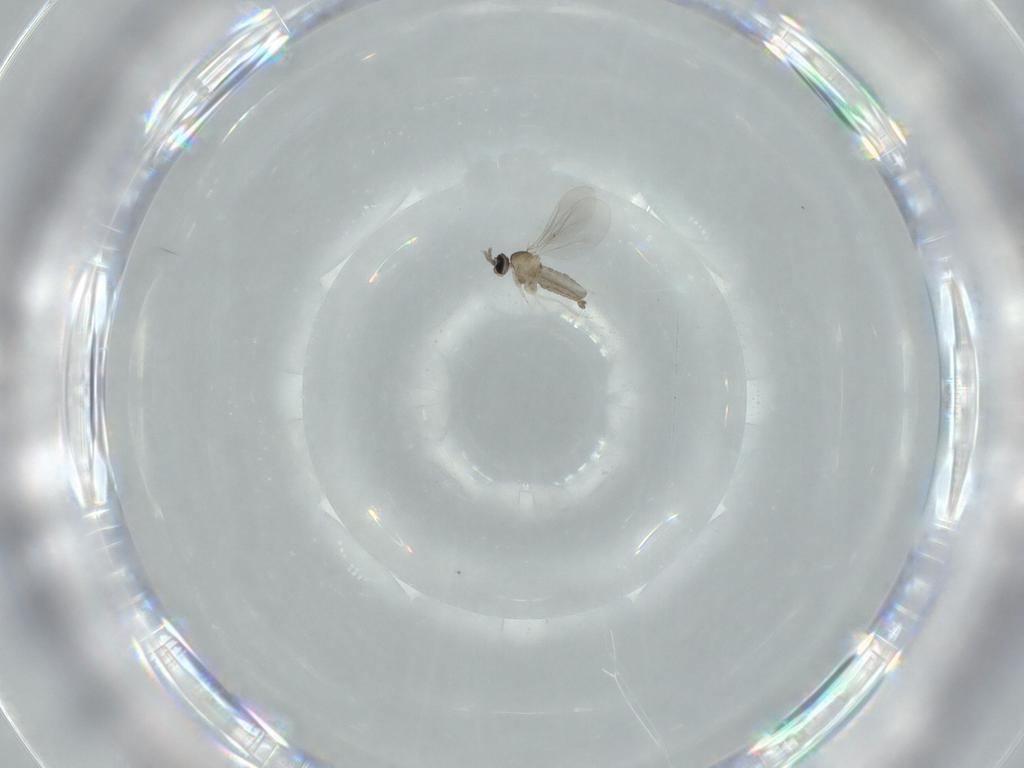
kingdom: Animalia
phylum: Arthropoda
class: Insecta
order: Diptera
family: Cecidomyiidae
